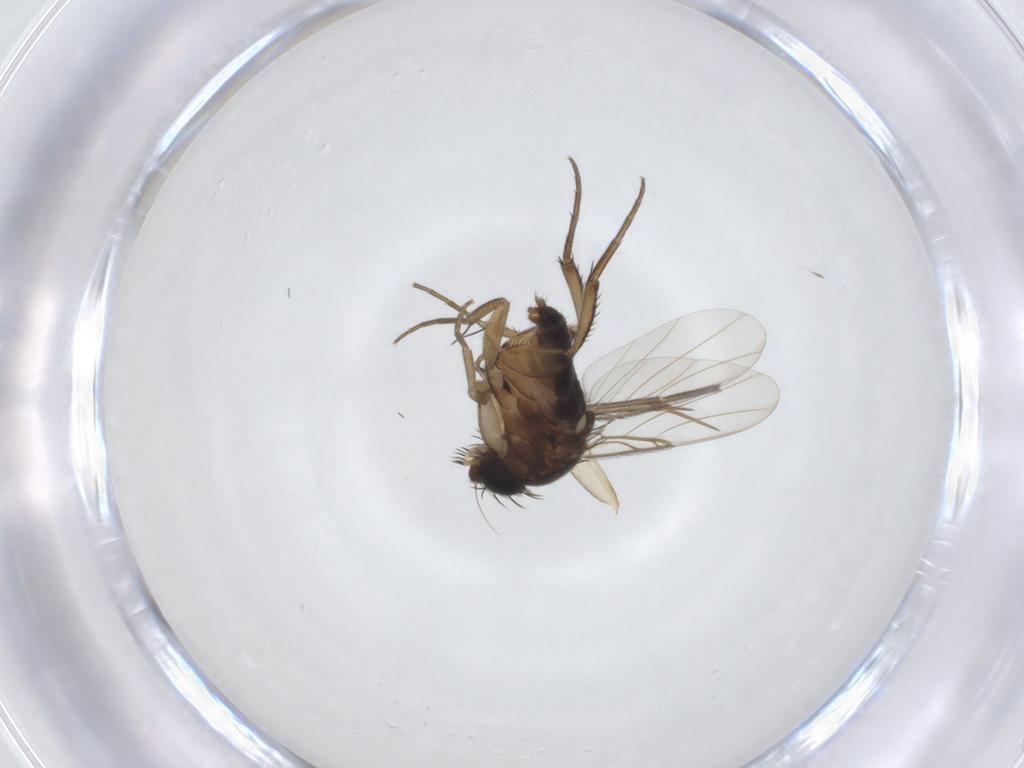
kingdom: Animalia
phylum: Arthropoda
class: Insecta
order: Diptera
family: Phoridae
